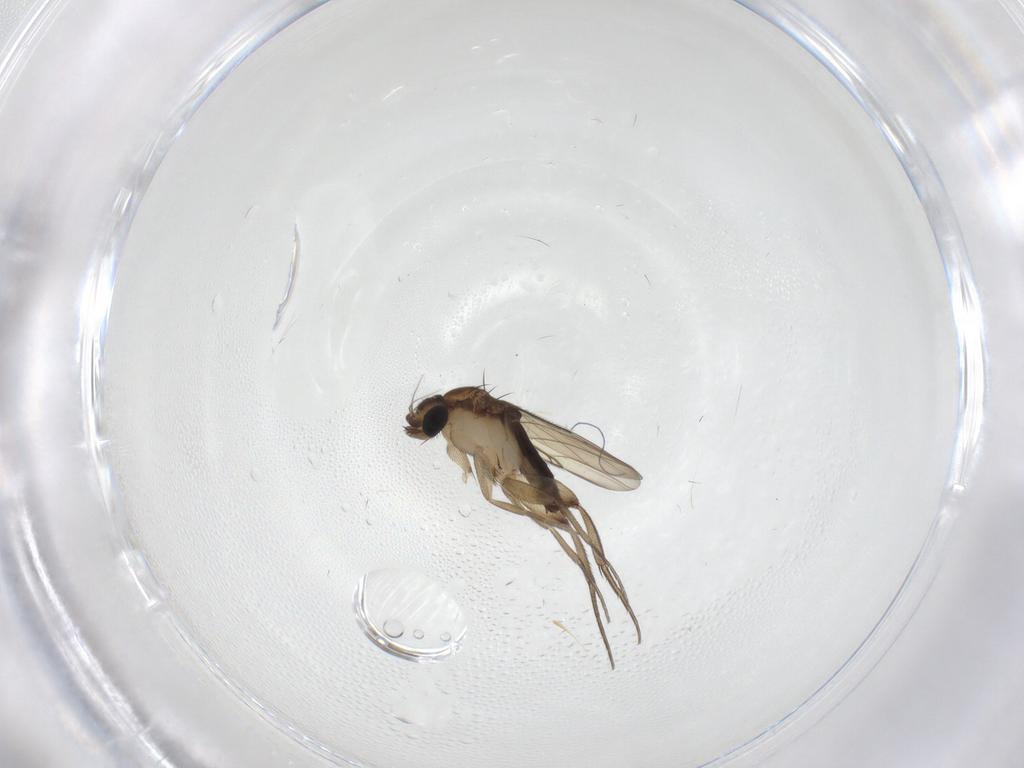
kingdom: Animalia
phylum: Arthropoda
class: Insecta
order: Diptera
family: Phoridae
